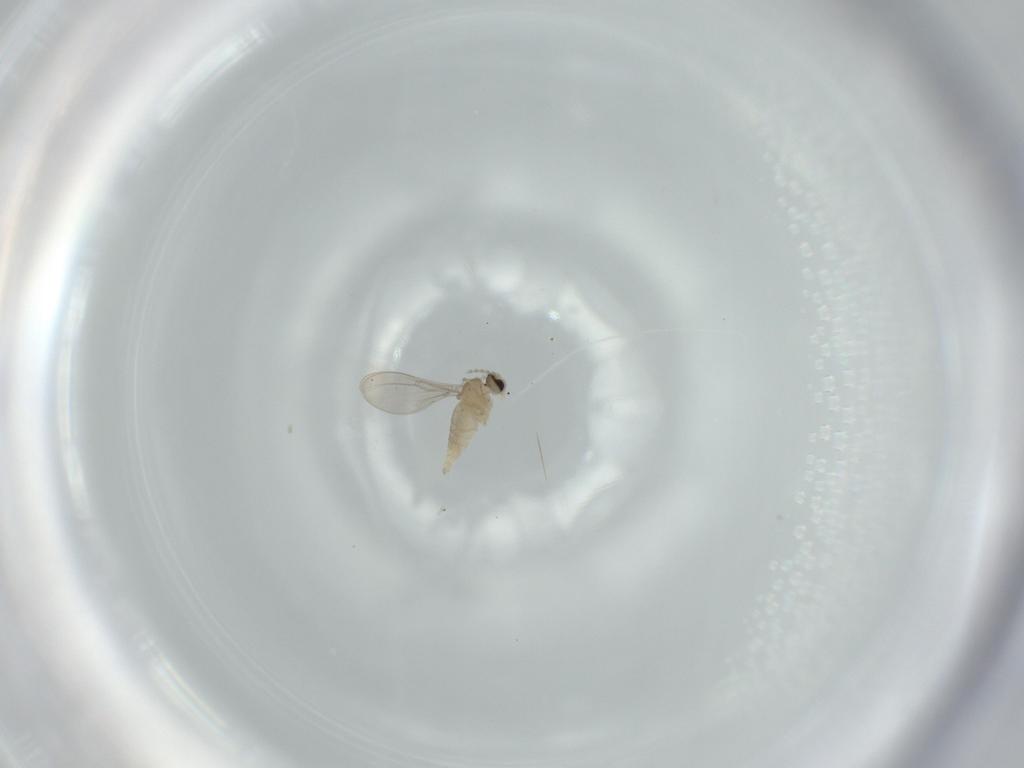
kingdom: Animalia
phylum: Arthropoda
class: Insecta
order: Diptera
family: Cecidomyiidae
